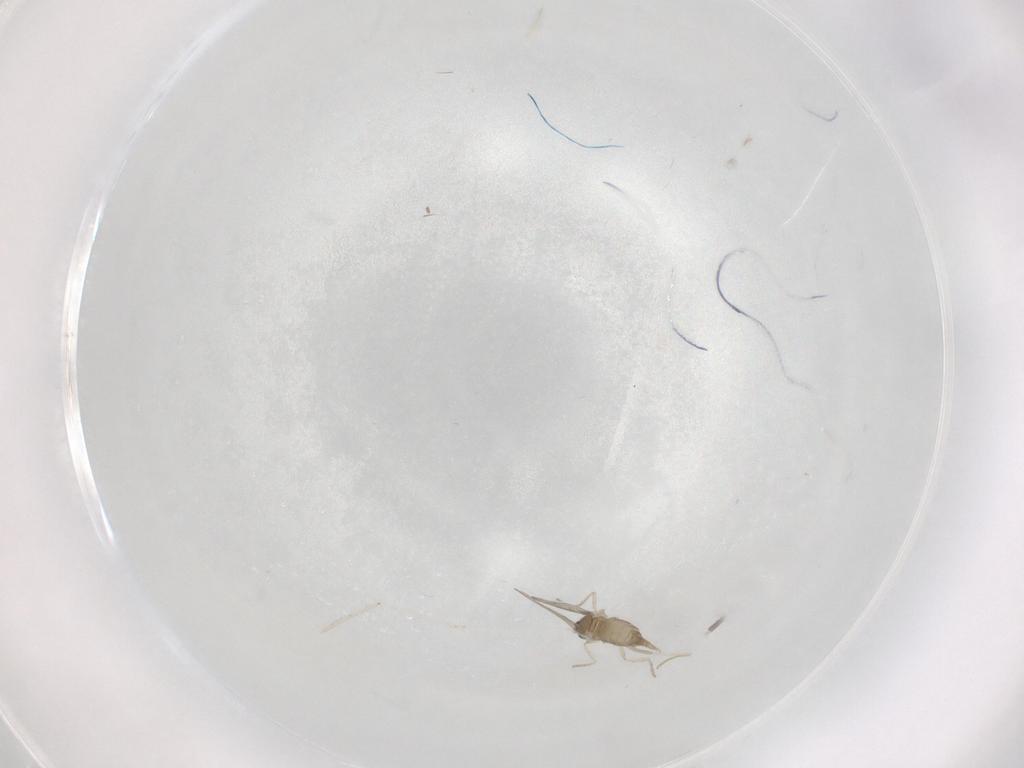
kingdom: Animalia
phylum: Arthropoda
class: Insecta
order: Diptera
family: Cecidomyiidae
